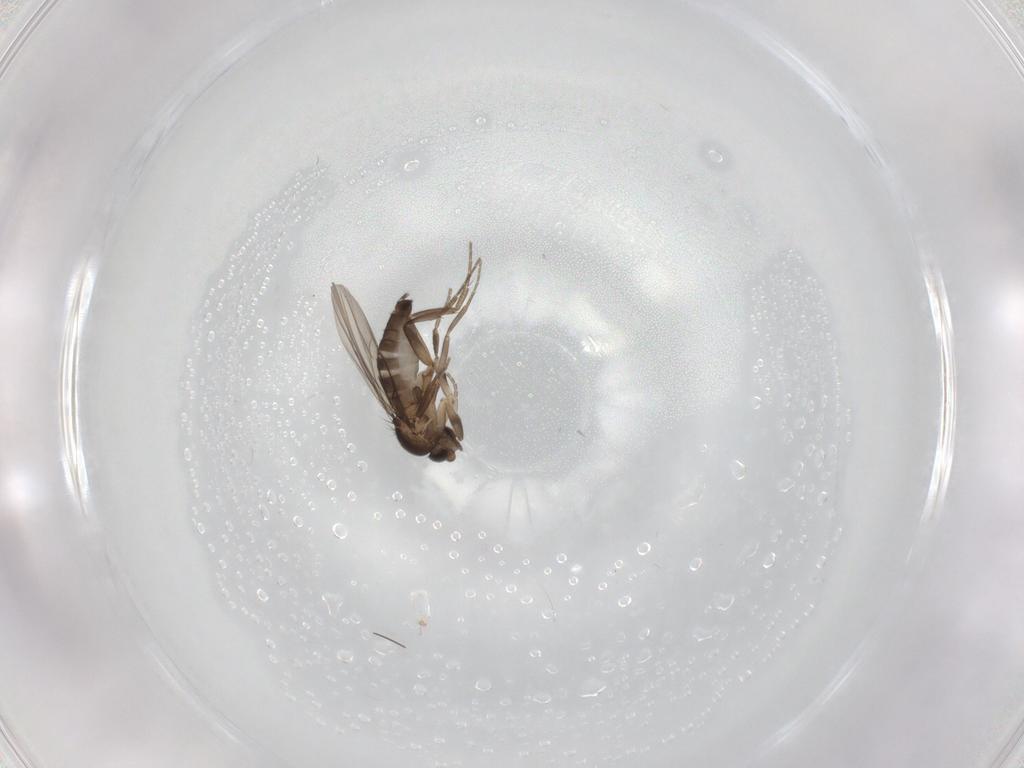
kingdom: Animalia
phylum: Arthropoda
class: Insecta
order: Diptera
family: Phoridae
